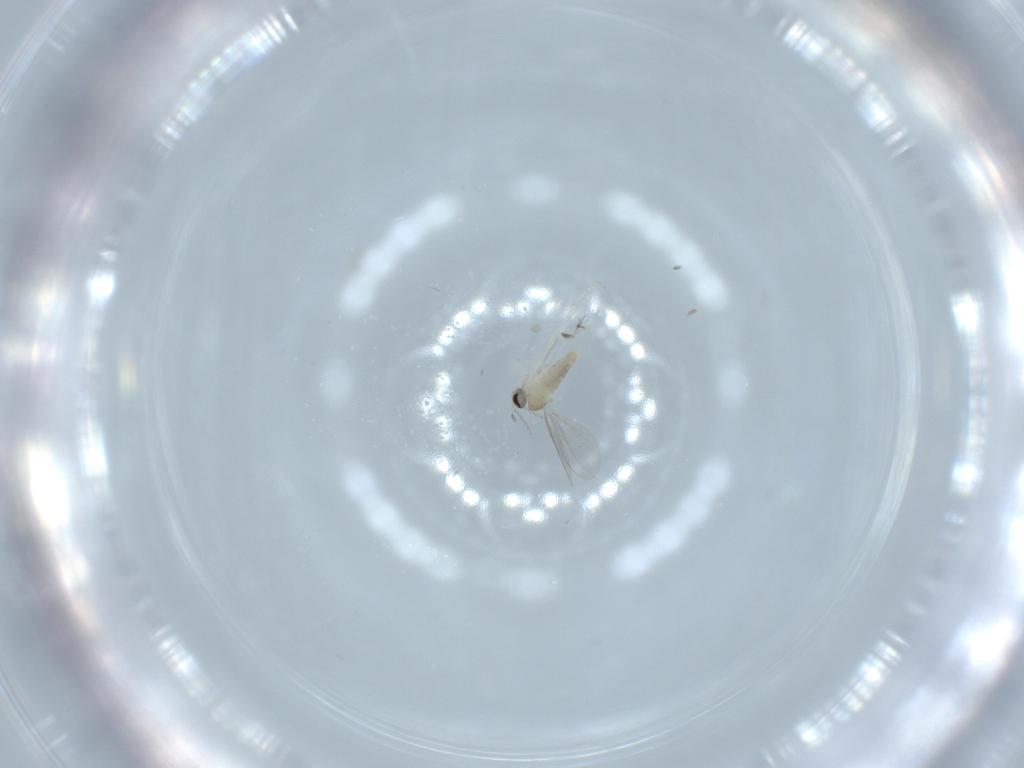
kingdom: Animalia
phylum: Arthropoda
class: Insecta
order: Diptera
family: Cecidomyiidae
